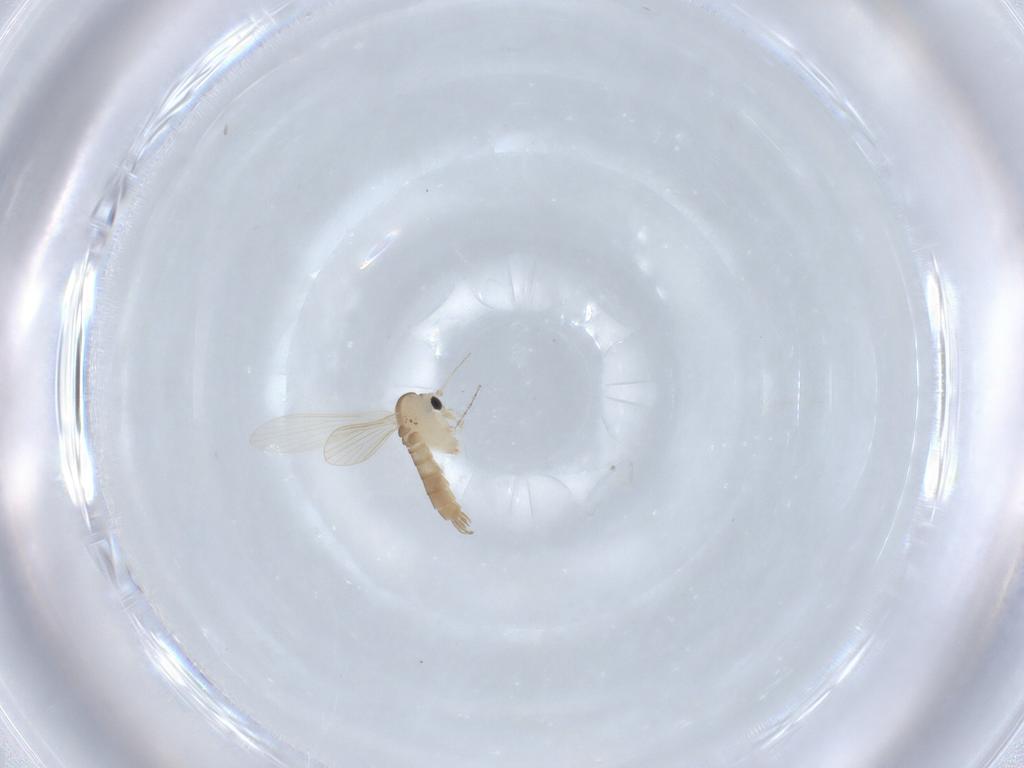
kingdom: Animalia
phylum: Arthropoda
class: Insecta
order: Diptera
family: Psychodidae
